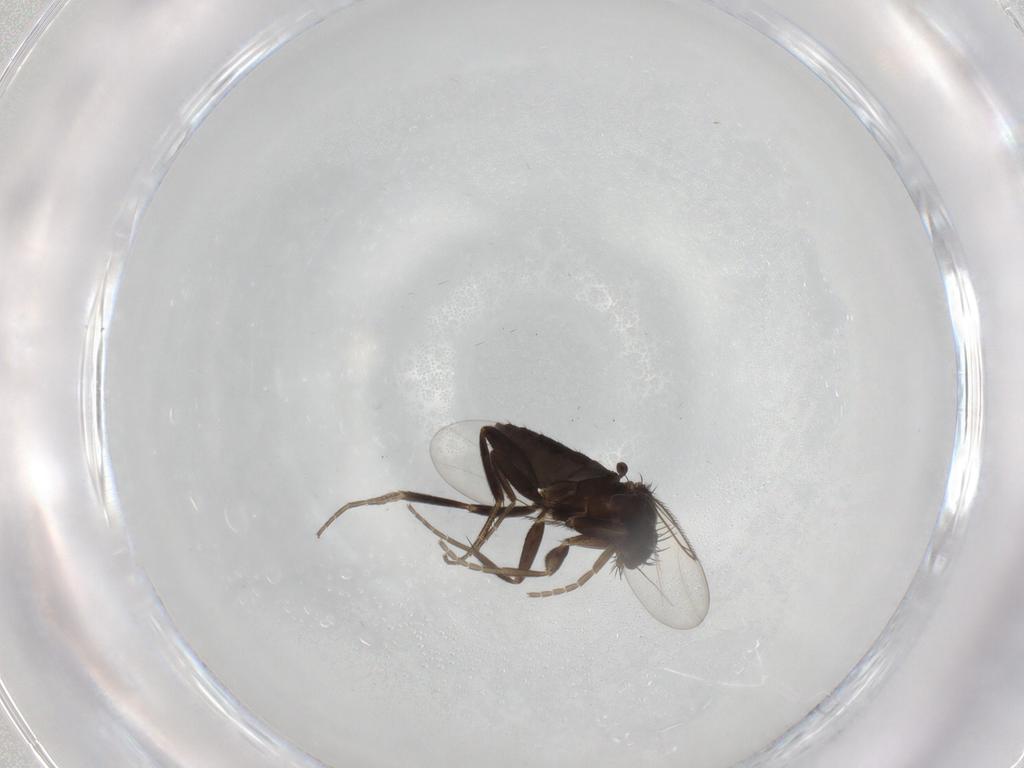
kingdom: Animalia
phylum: Arthropoda
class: Insecta
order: Diptera
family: Phoridae
